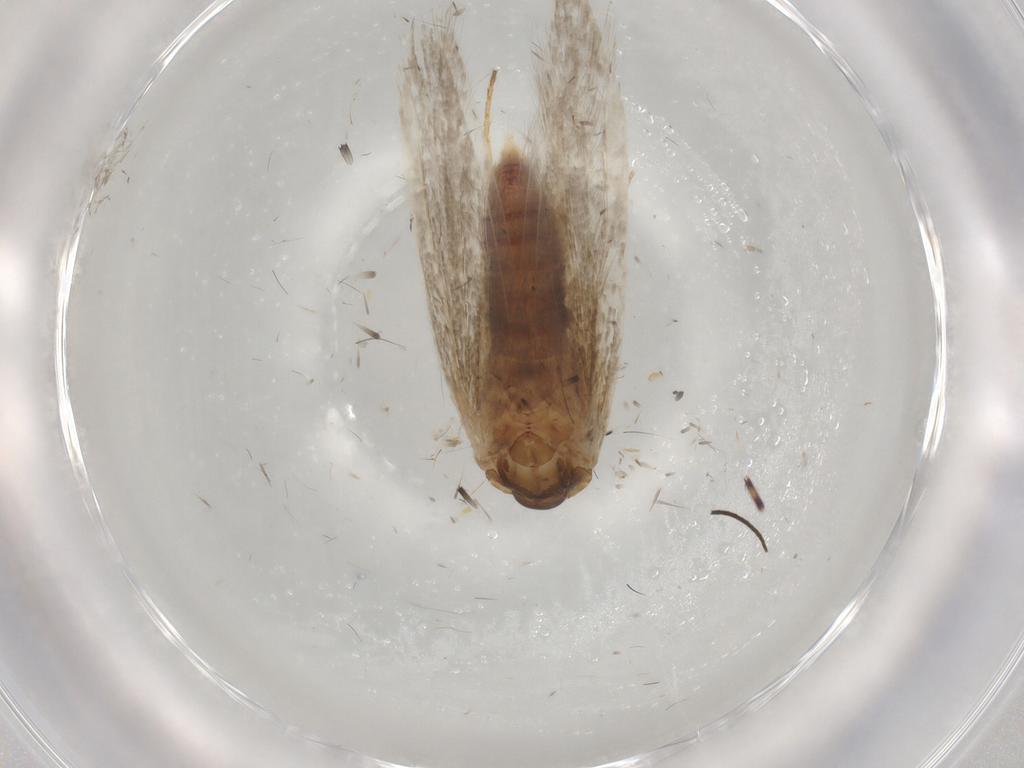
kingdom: Animalia
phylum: Arthropoda
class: Insecta
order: Lepidoptera
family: Blastobasidae
